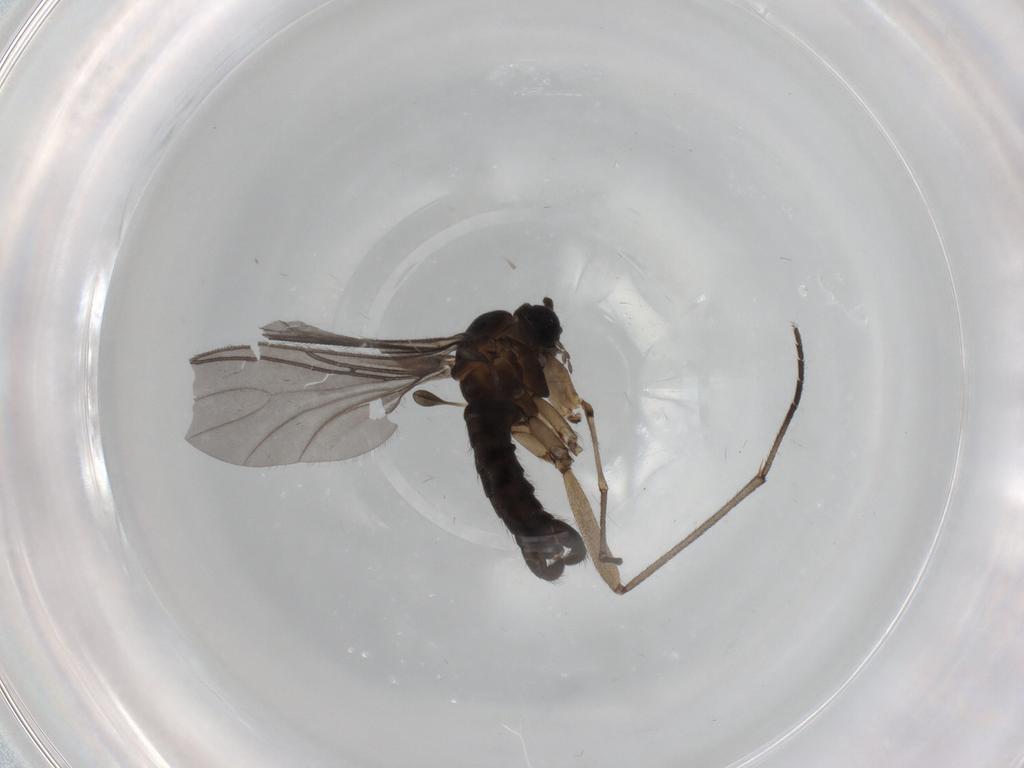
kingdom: Animalia
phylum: Arthropoda
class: Insecta
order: Diptera
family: Sciaridae
